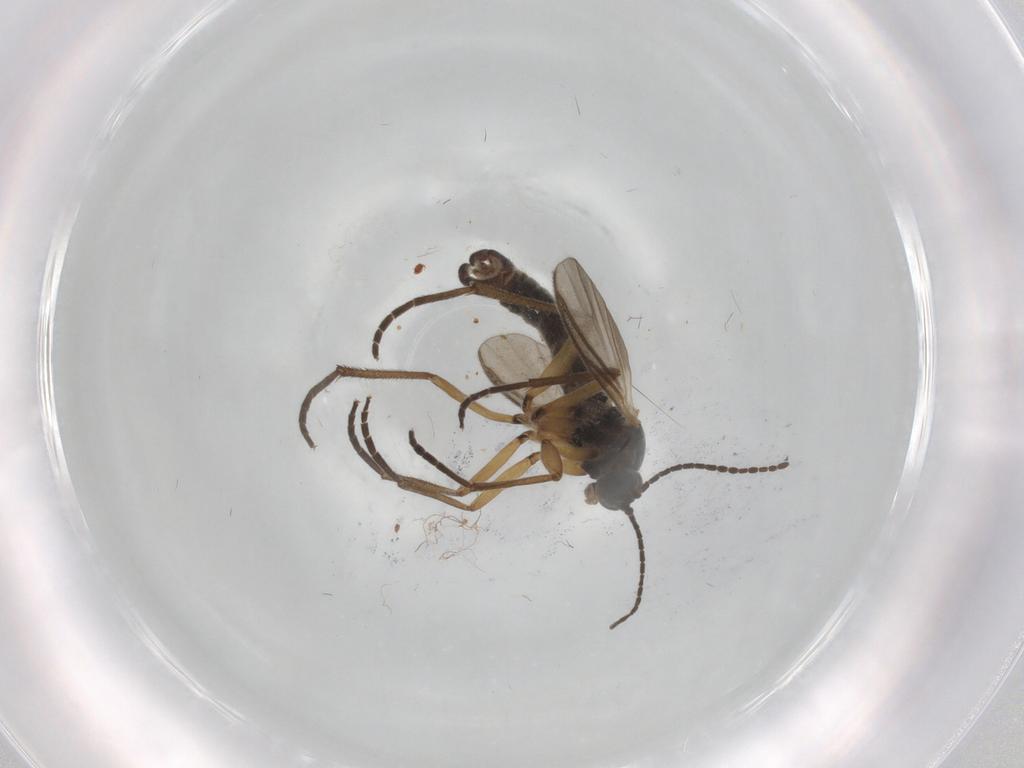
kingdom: Animalia
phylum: Arthropoda
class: Insecta
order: Diptera
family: Sciaridae
